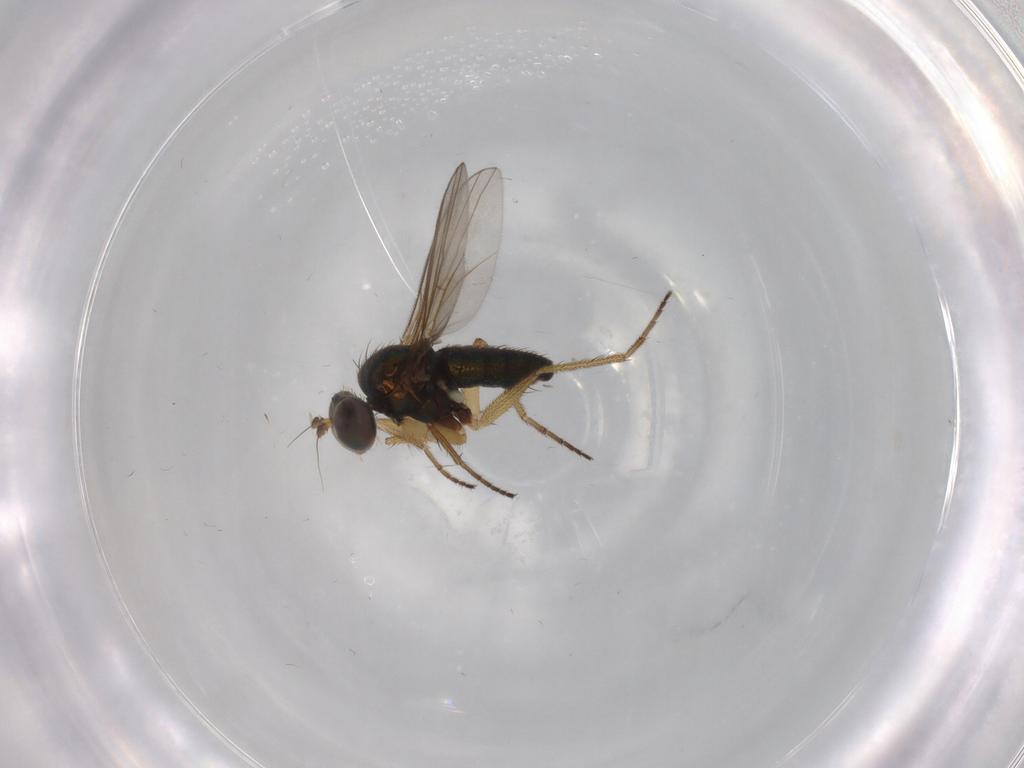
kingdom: Animalia
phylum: Arthropoda
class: Insecta
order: Diptera
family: Dolichopodidae
